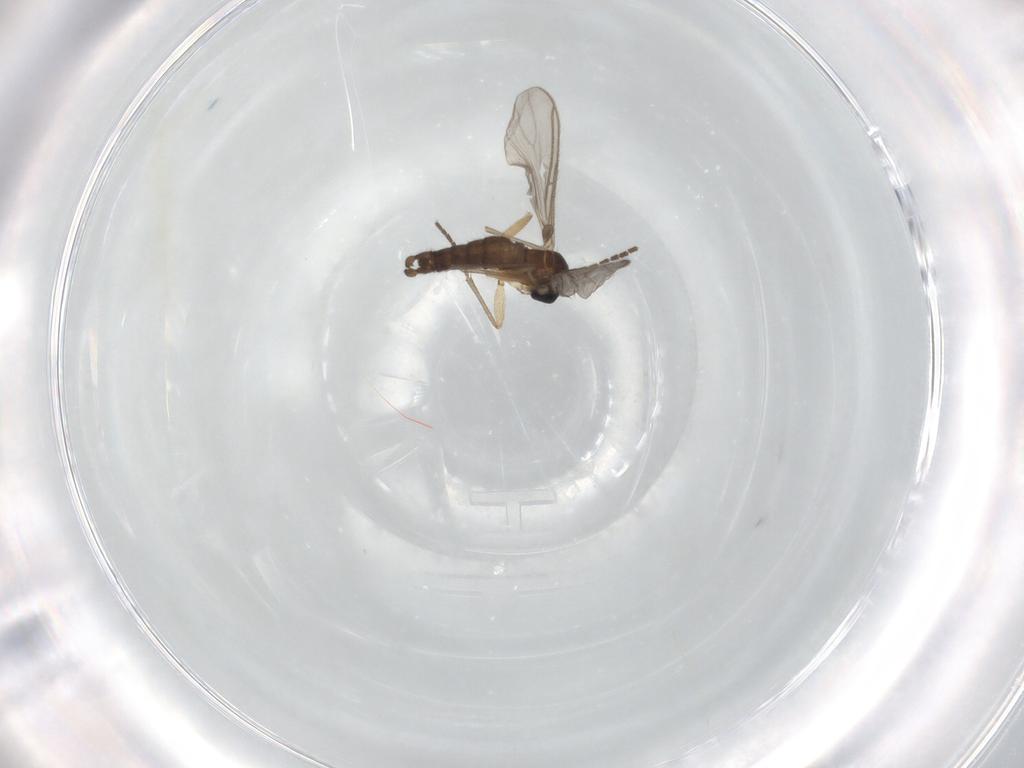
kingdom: Animalia
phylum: Arthropoda
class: Insecta
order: Diptera
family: Sciaridae
